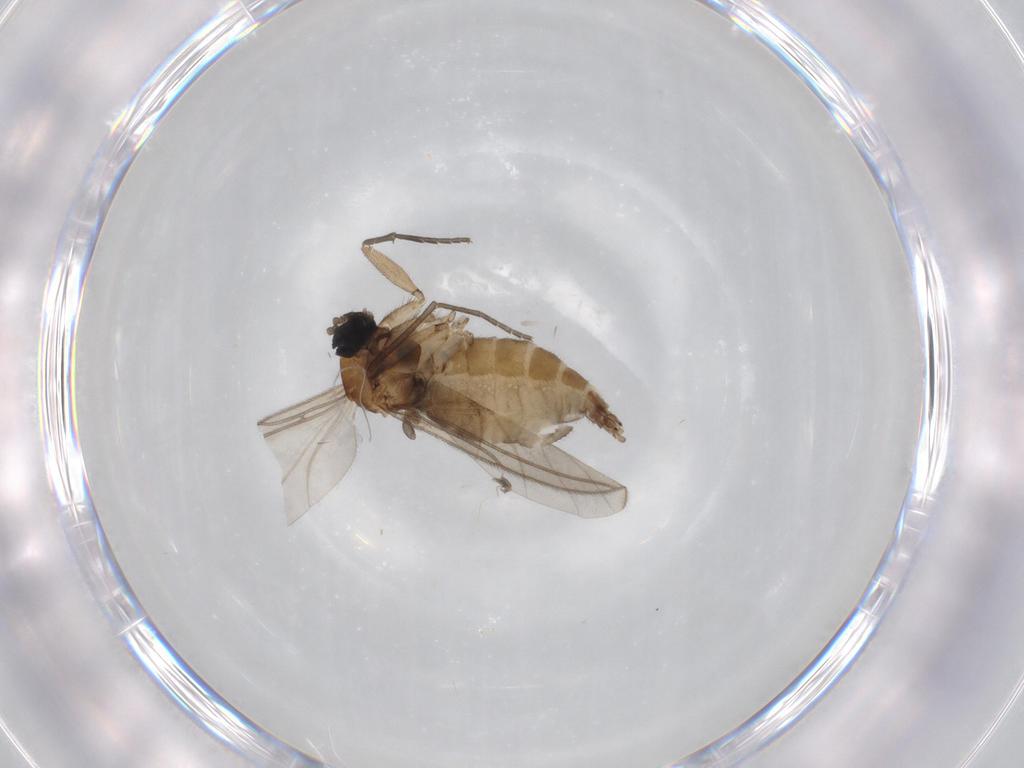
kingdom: Animalia
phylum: Arthropoda
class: Insecta
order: Diptera
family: Sciaridae
